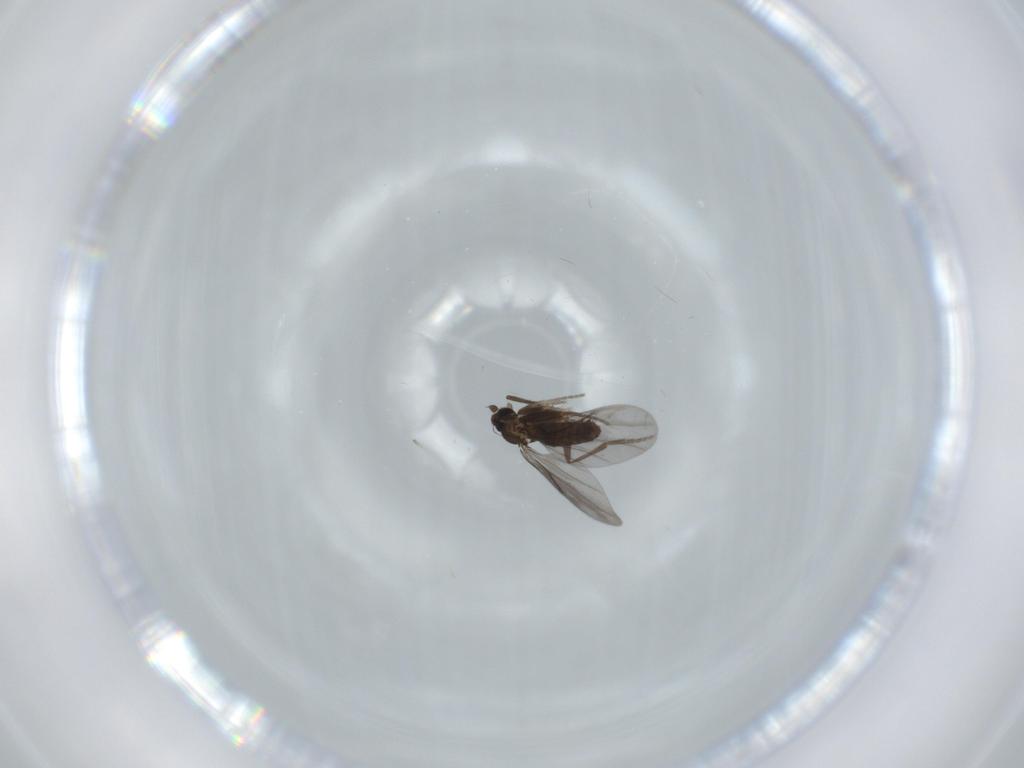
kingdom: Animalia
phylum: Arthropoda
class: Insecta
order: Diptera
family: Phoridae
